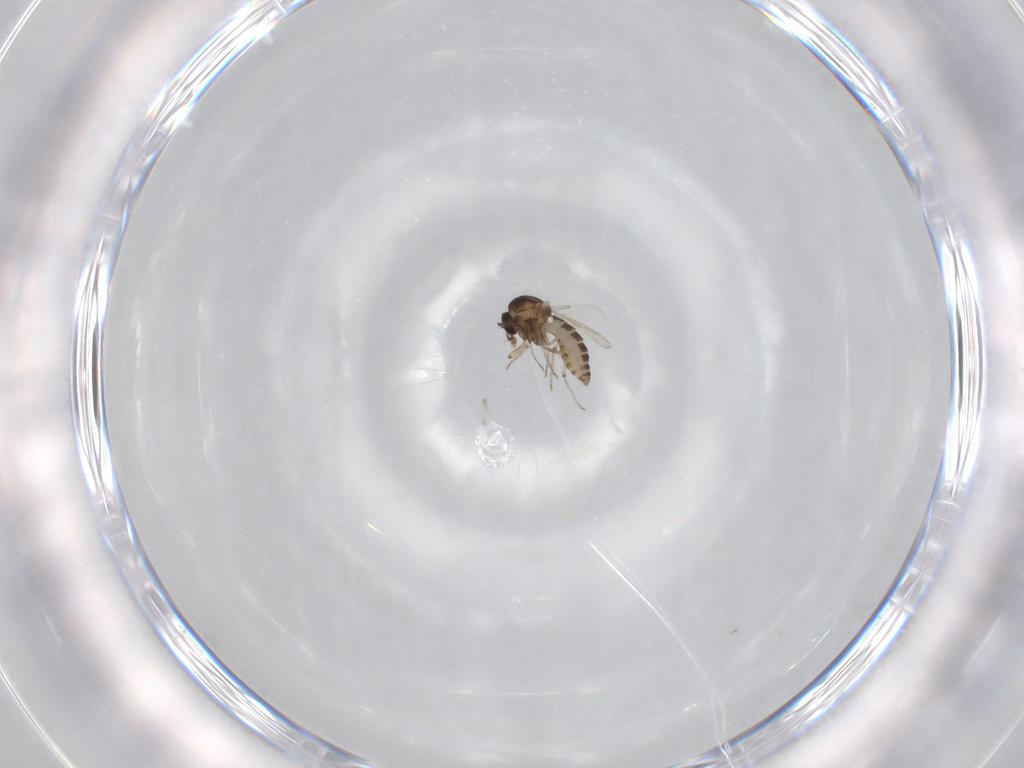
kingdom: Animalia
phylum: Arthropoda
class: Insecta
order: Diptera
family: Ceratopogonidae
